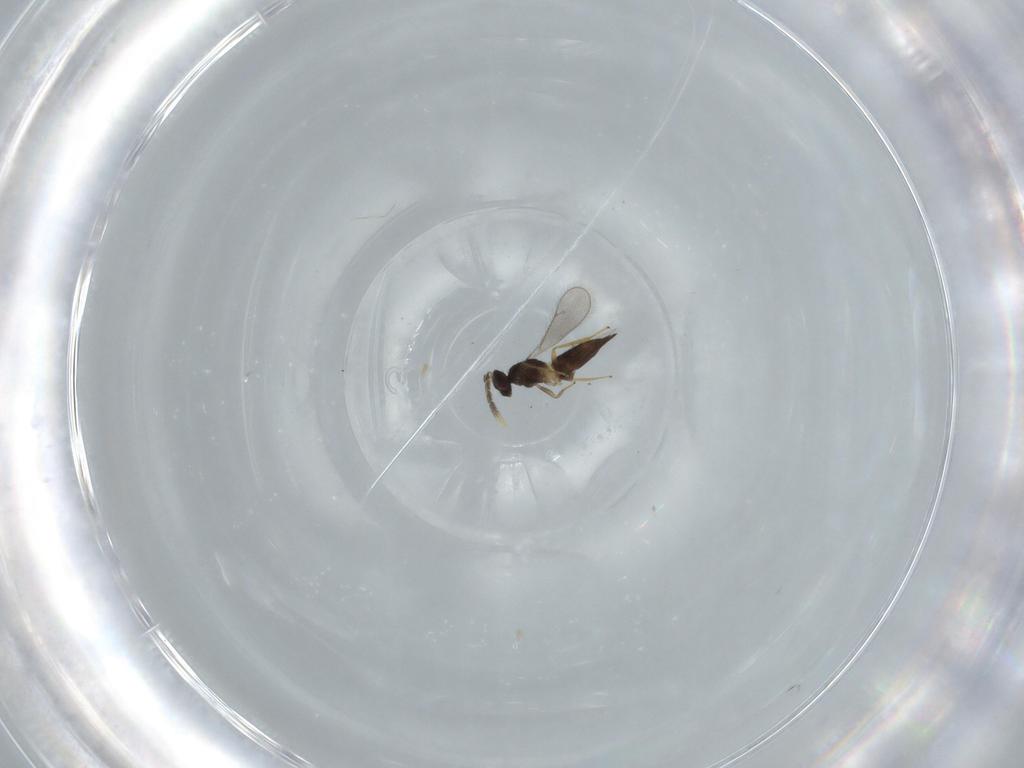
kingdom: Animalia
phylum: Arthropoda
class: Insecta
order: Hymenoptera
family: Eulophidae
